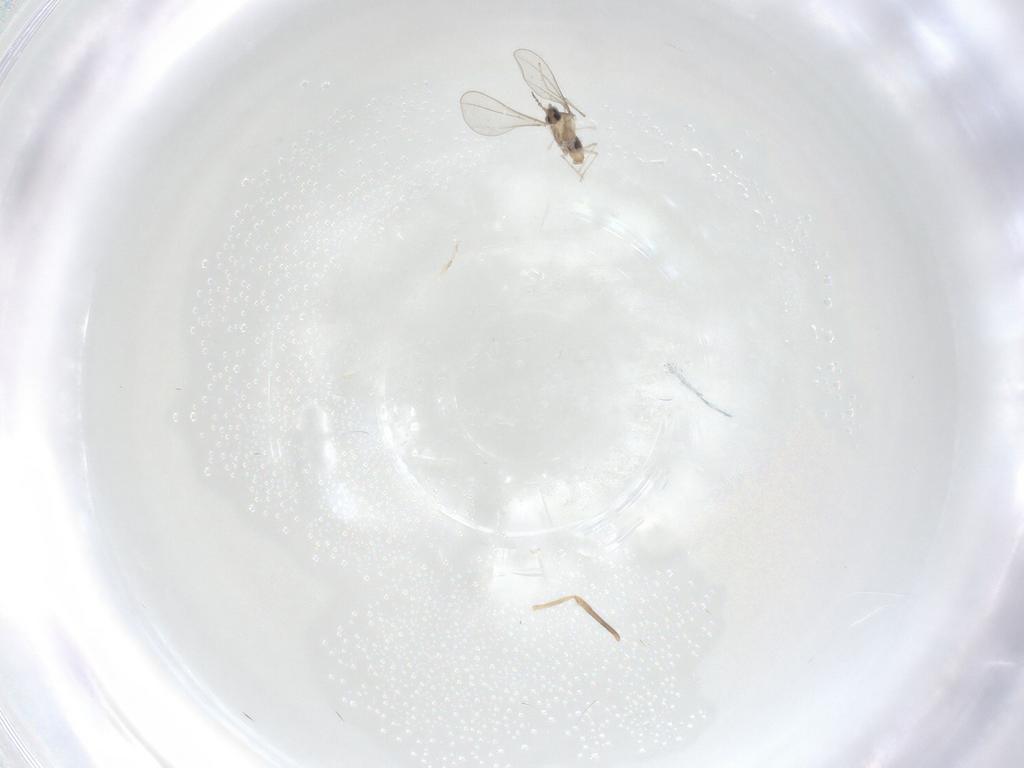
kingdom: Animalia
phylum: Arthropoda
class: Insecta
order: Diptera
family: Chironomidae
